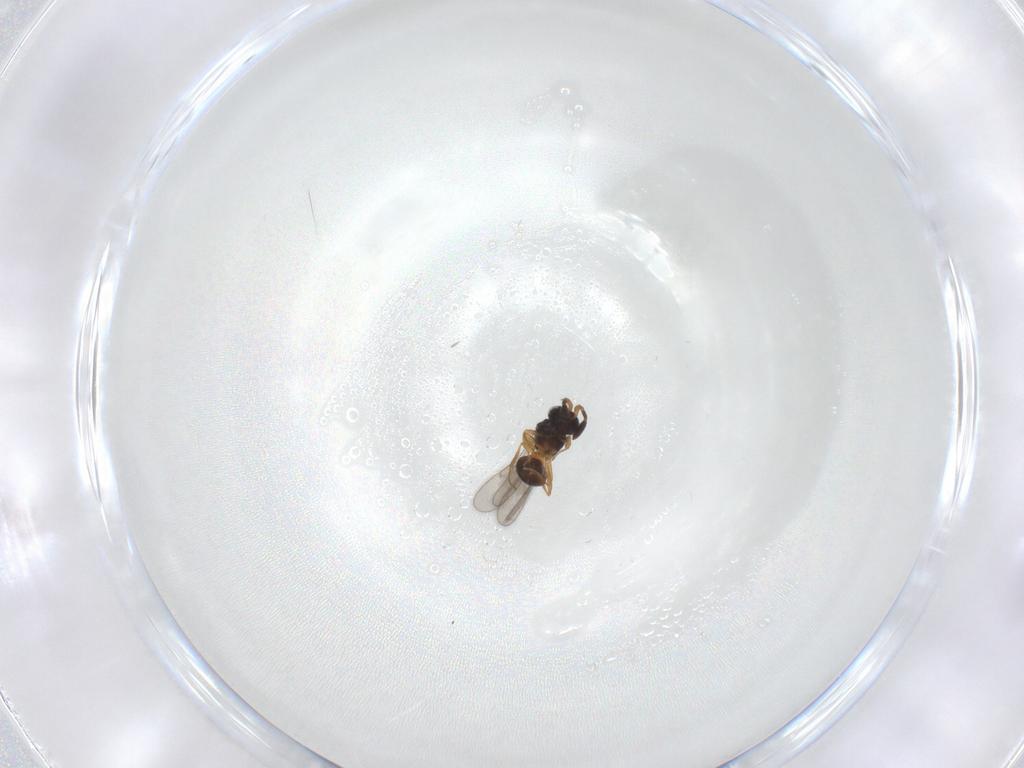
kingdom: Animalia
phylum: Arthropoda
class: Insecta
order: Hymenoptera
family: Scelionidae
